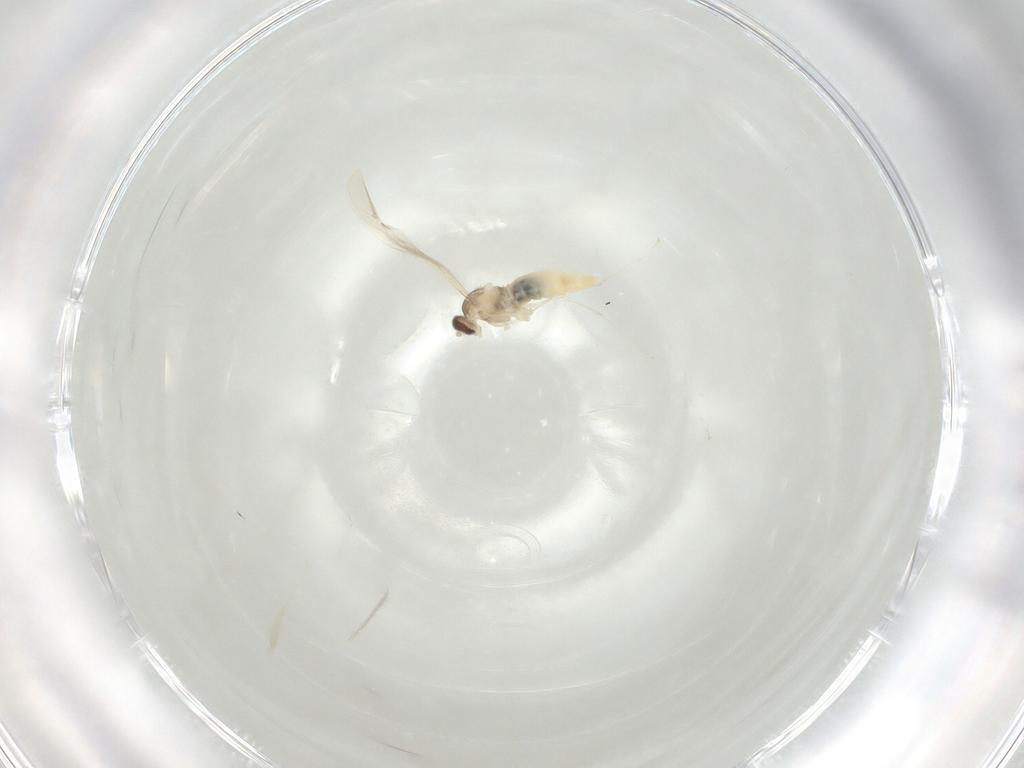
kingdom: Animalia
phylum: Arthropoda
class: Insecta
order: Diptera
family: Cecidomyiidae
